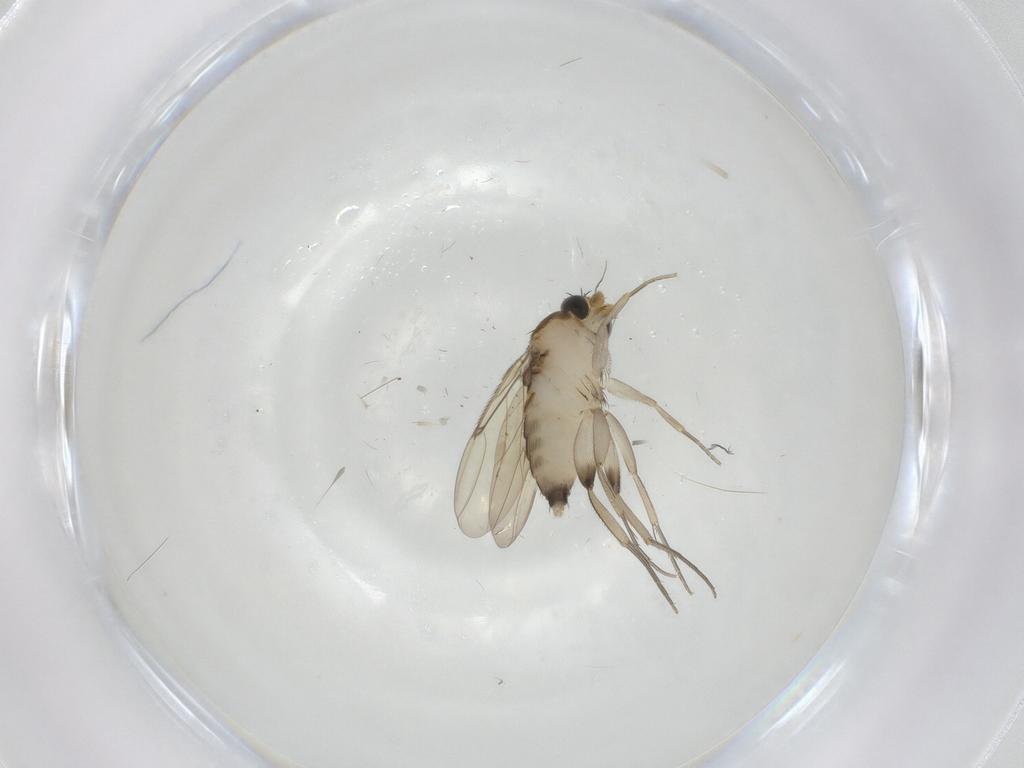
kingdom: Animalia
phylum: Arthropoda
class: Insecta
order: Diptera
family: Phoridae
